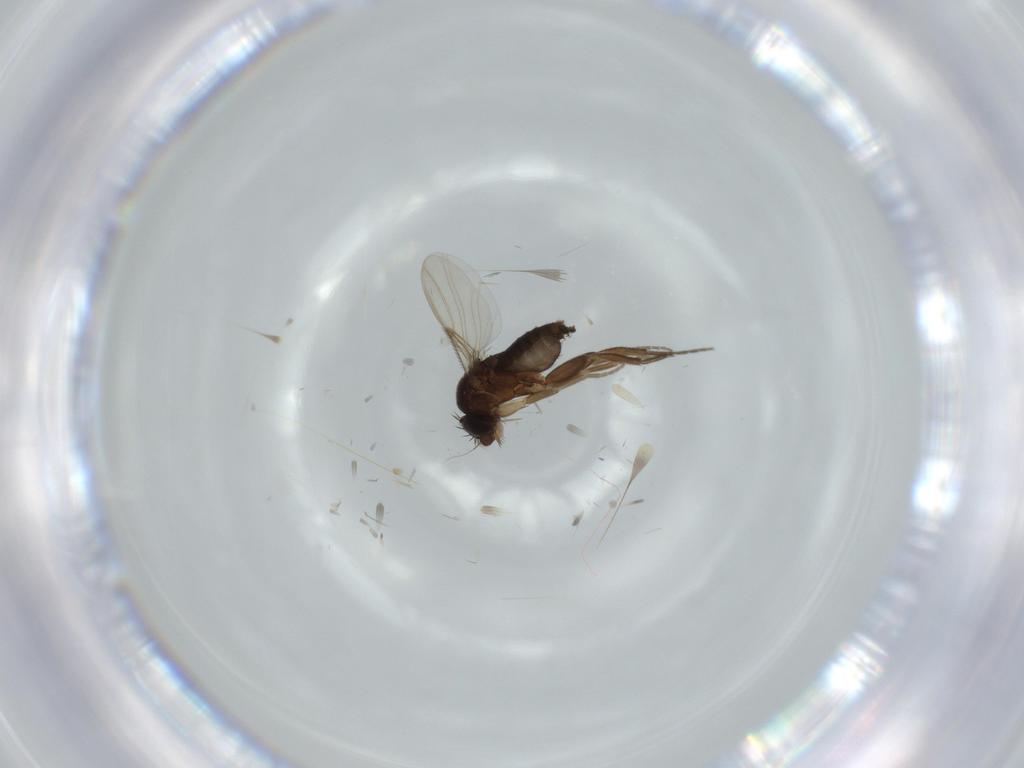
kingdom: Animalia
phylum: Arthropoda
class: Insecta
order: Diptera
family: Phoridae
